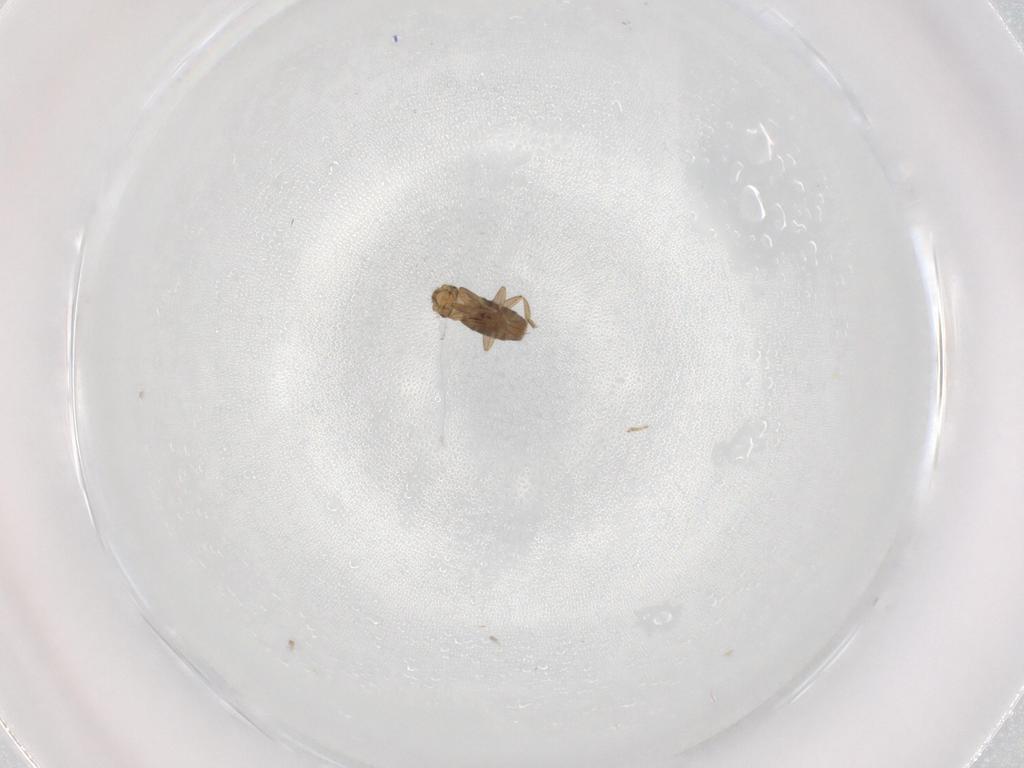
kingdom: Animalia
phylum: Arthropoda
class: Insecta
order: Diptera
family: Phoridae
